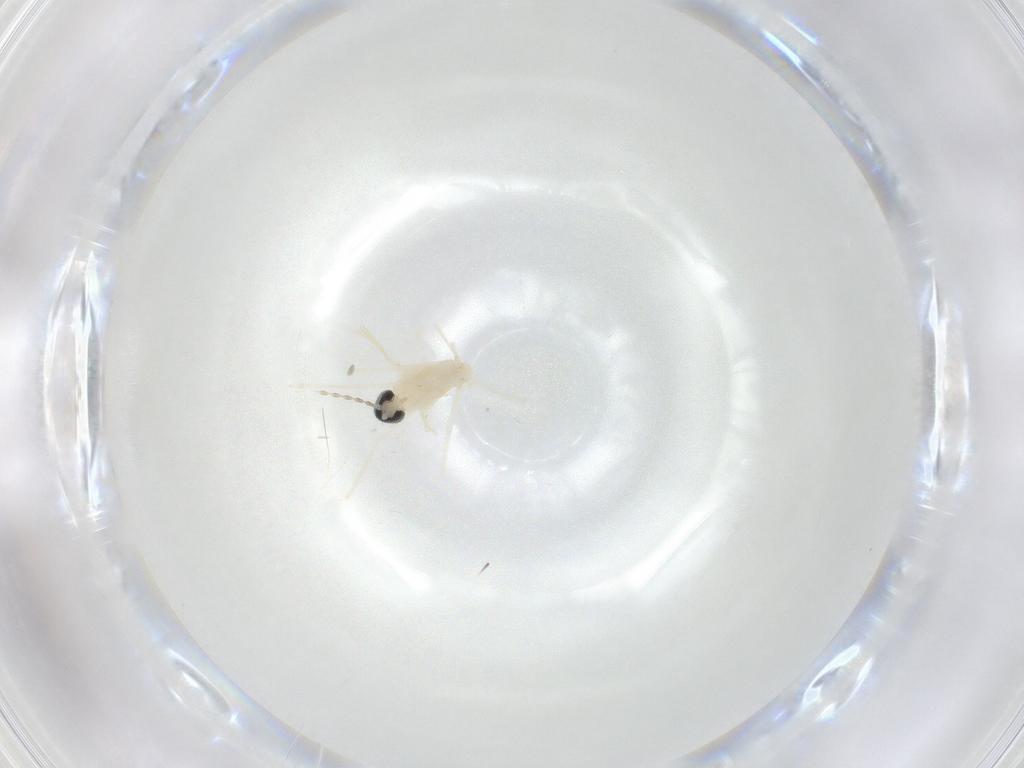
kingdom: Animalia
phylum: Arthropoda
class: Insecta
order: Diptera
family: Cecidomyiidae
